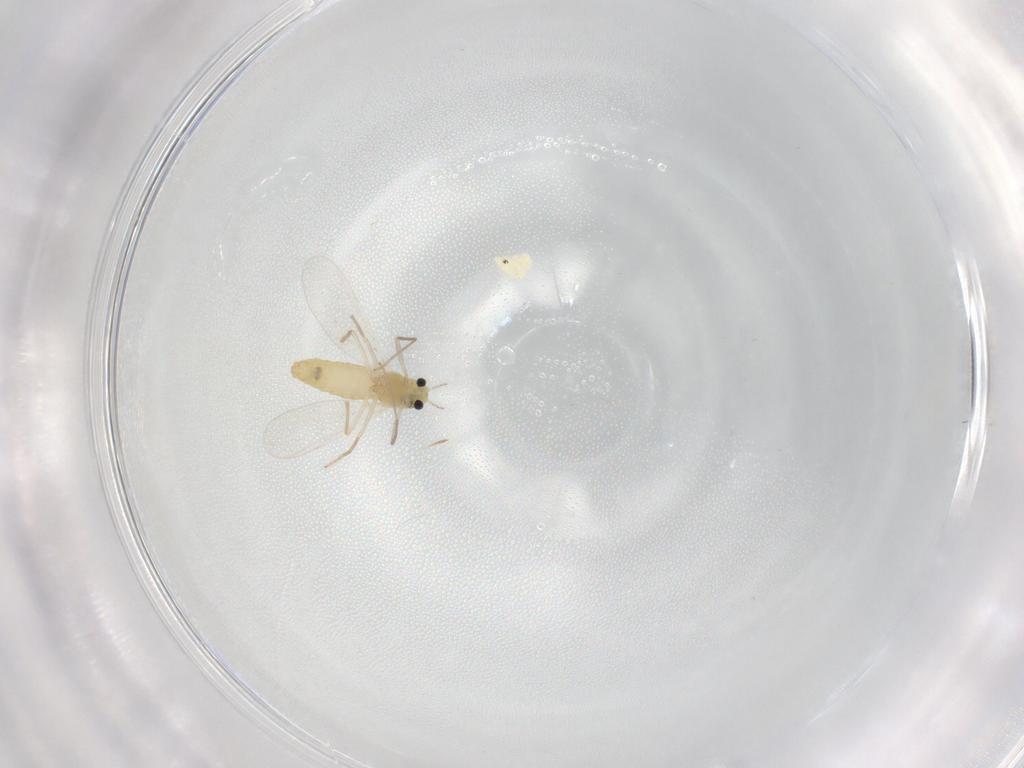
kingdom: Animalia
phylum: Arthropoda
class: Insecta
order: Diptera
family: Chironomidae
